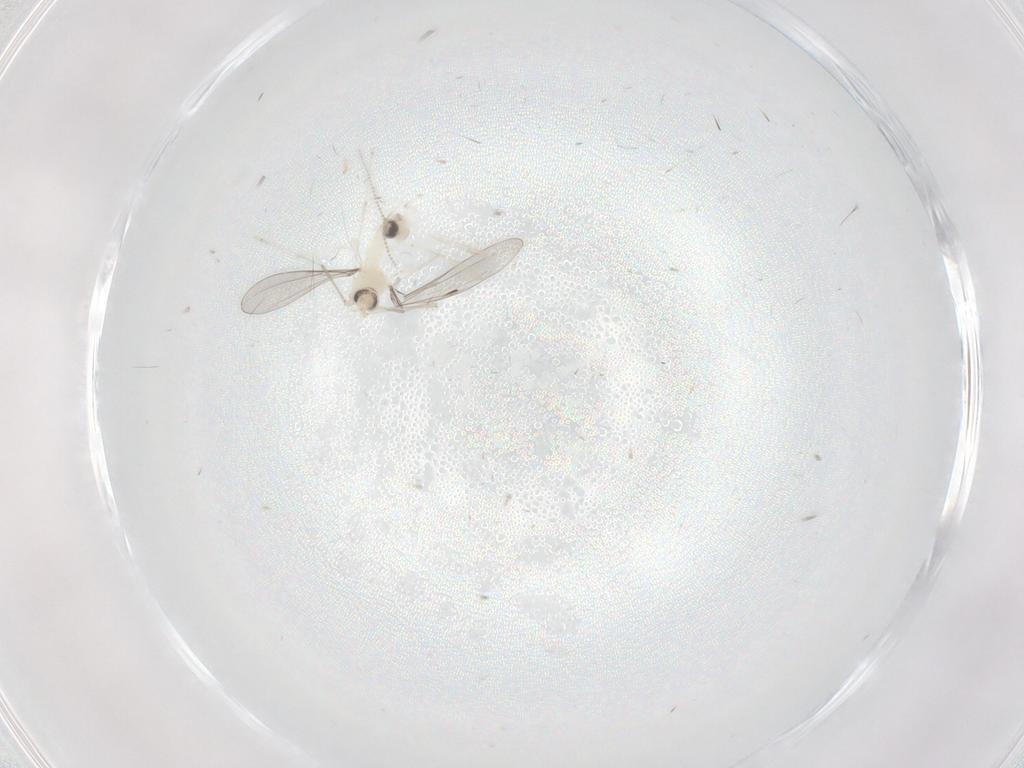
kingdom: Animalia
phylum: Arthropoda
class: Insecta
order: Diptera
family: Cecidomyiidae
